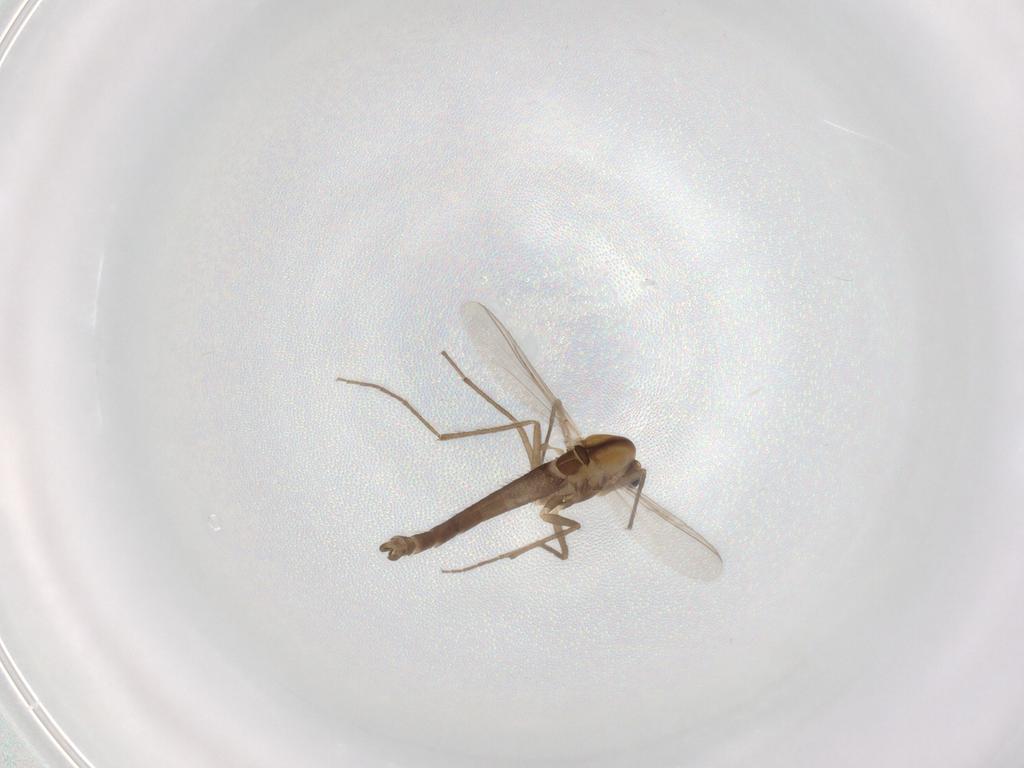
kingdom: Animalia
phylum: Arthropoda
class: Insecta
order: Diptera
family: Chironomidae
